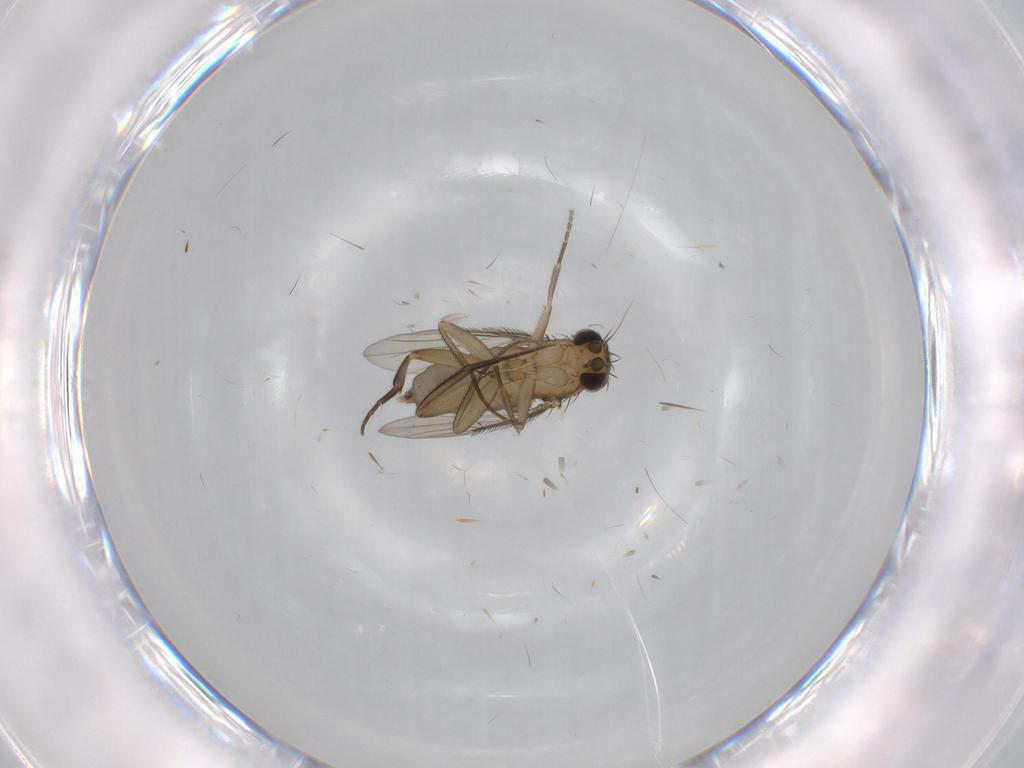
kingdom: Animalia
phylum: Arthropoda
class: Insecta
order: Diptera
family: Phoridae
